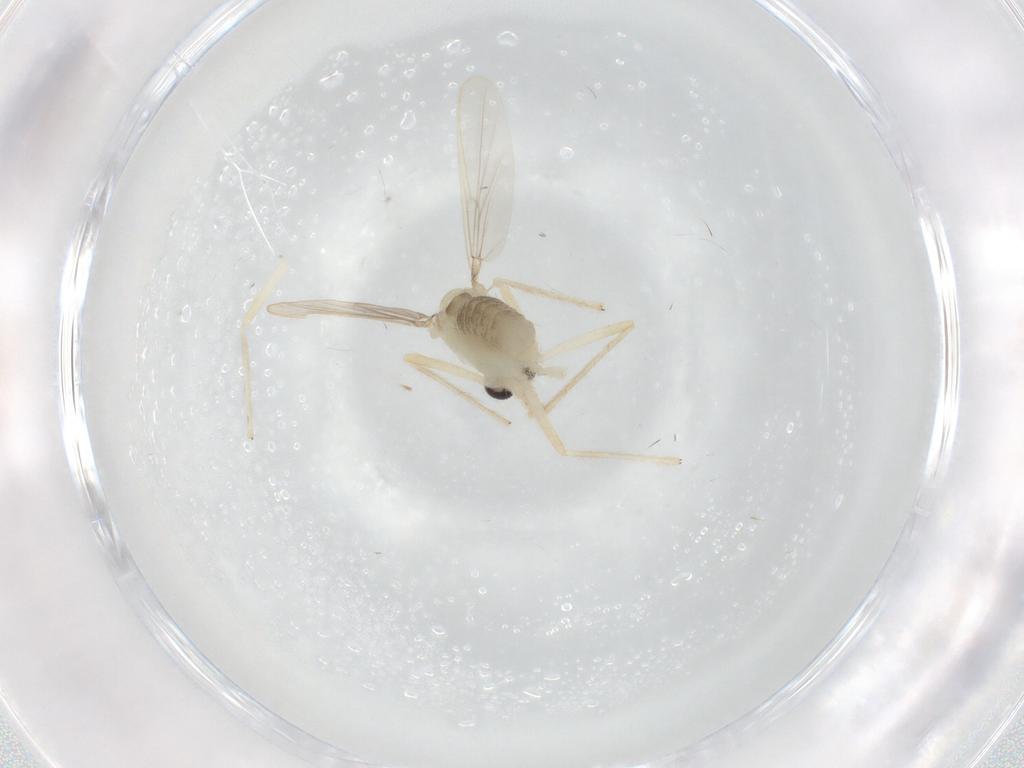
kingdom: Animalia
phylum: Arthropoda
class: Insecta
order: Diptera
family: Chironomidae
